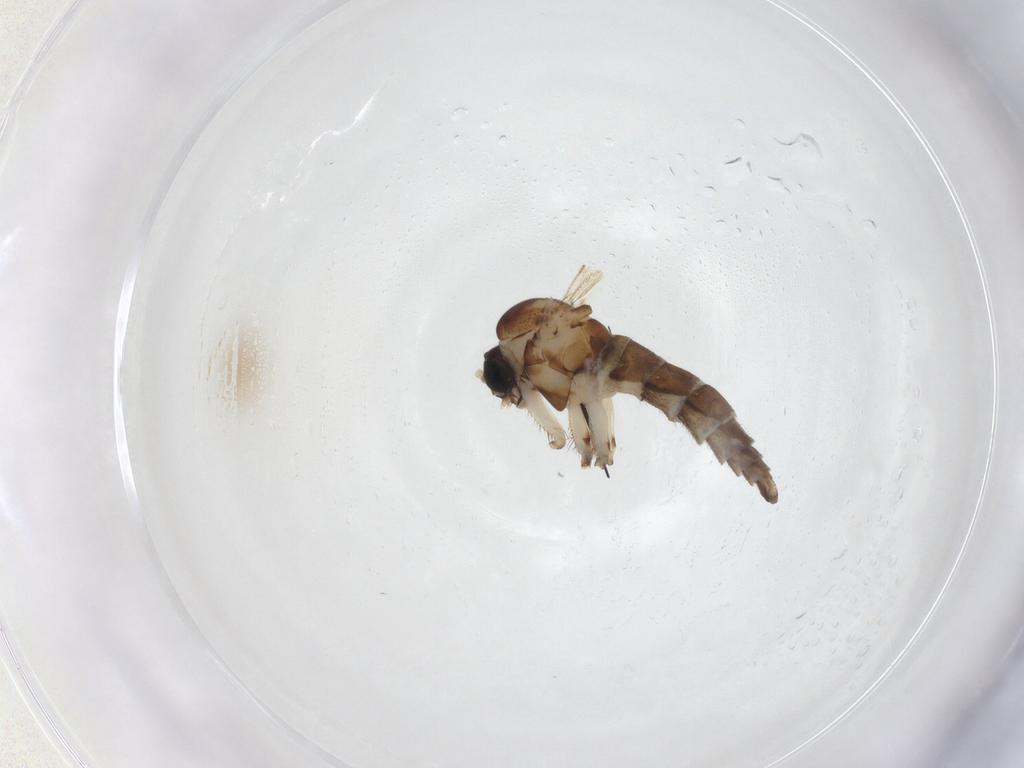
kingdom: Animalia
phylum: Arthropoda
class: Insecta
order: Diptera
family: Sciaridae
